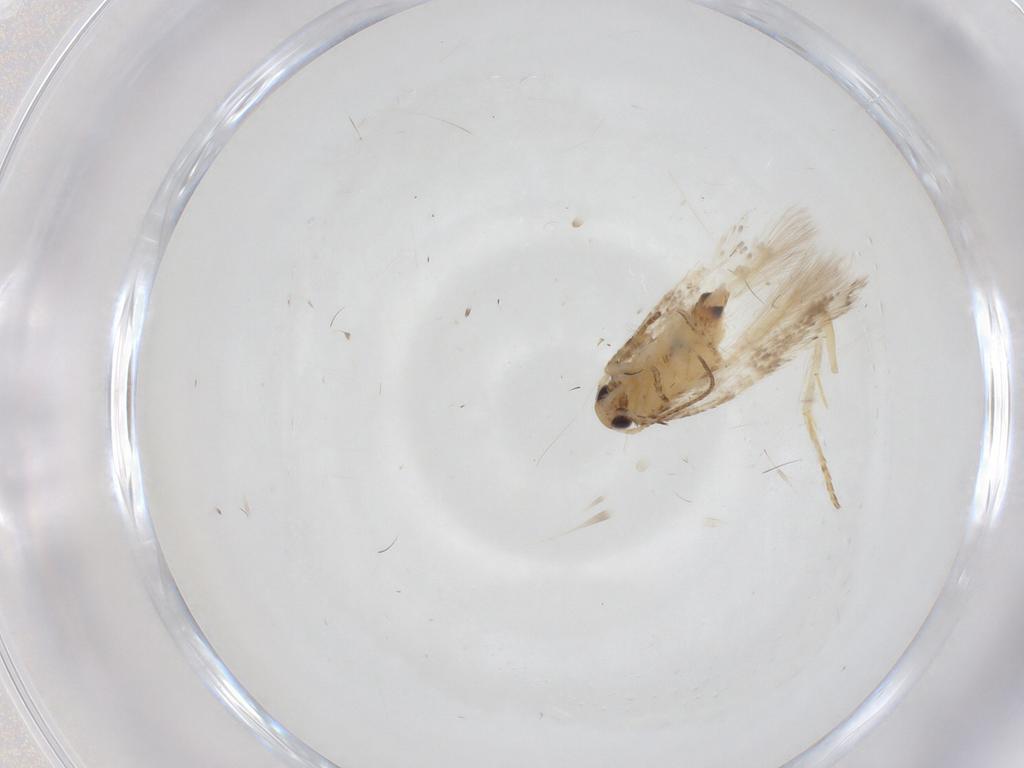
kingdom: Animalia
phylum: Arthropoda
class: Insecta
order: Lepidoptera
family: Gelechiidae
